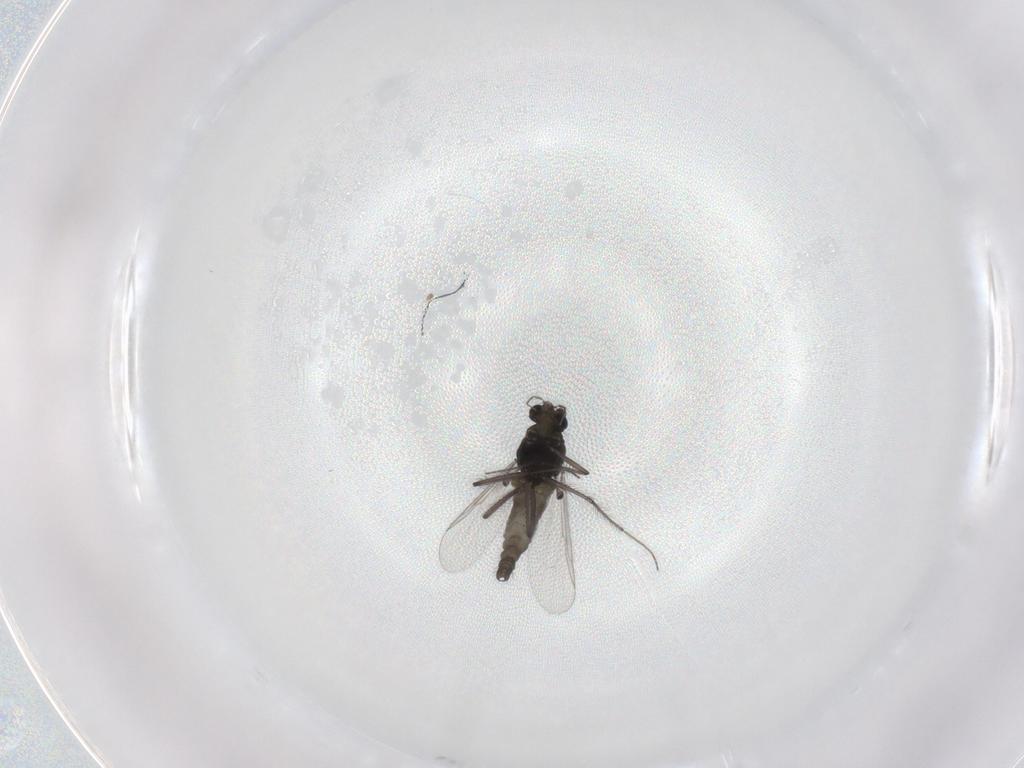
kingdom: Animalia
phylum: Arthropoda
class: Insecta
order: Diptera
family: Chironomidae
